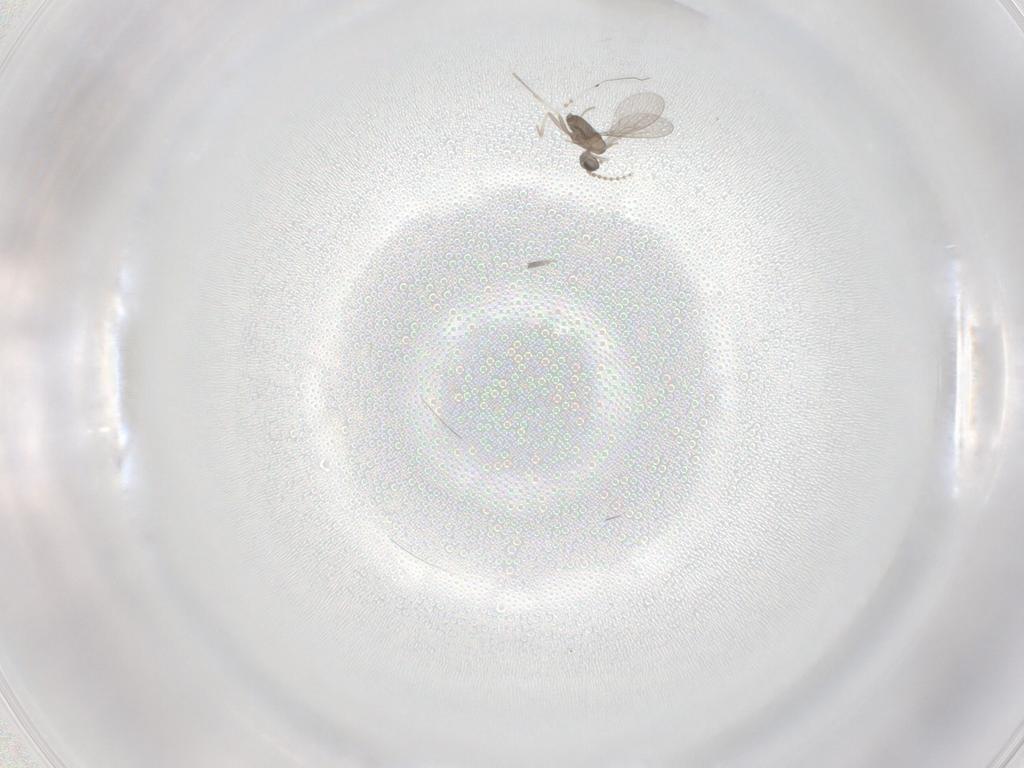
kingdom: Animalia
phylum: Arthropoda
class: Insecta
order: Diptera
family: Cecidomyiidae
